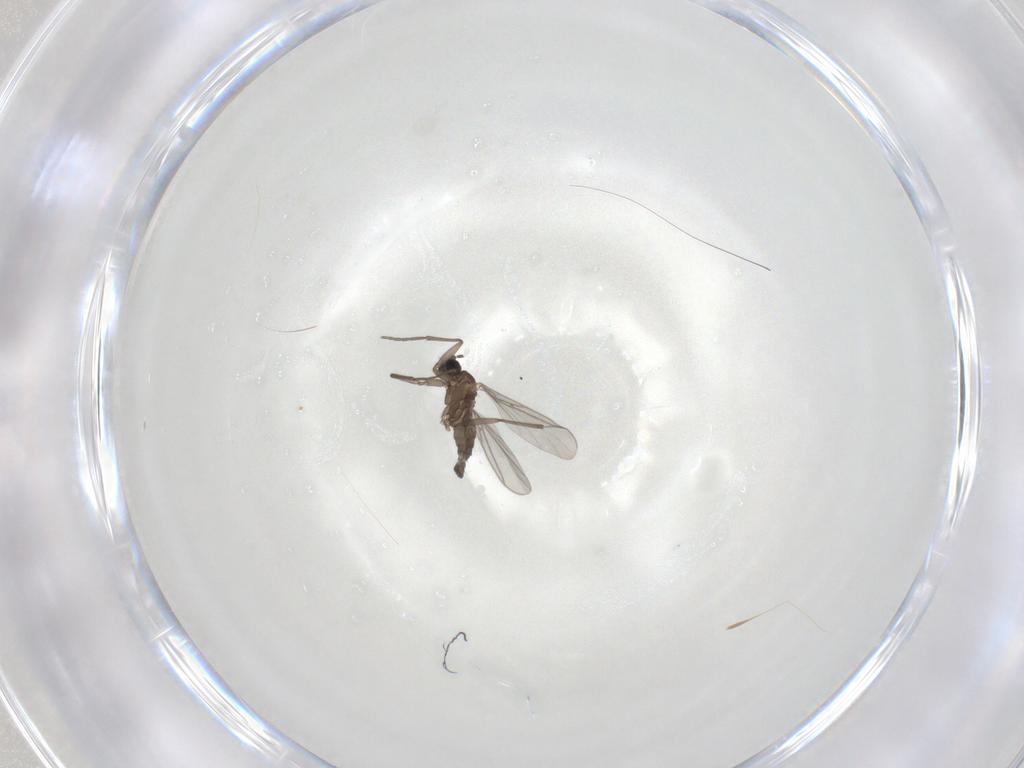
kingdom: Animalia
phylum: Arthropoda
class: Insecta
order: Diptera
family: Sciaridae
